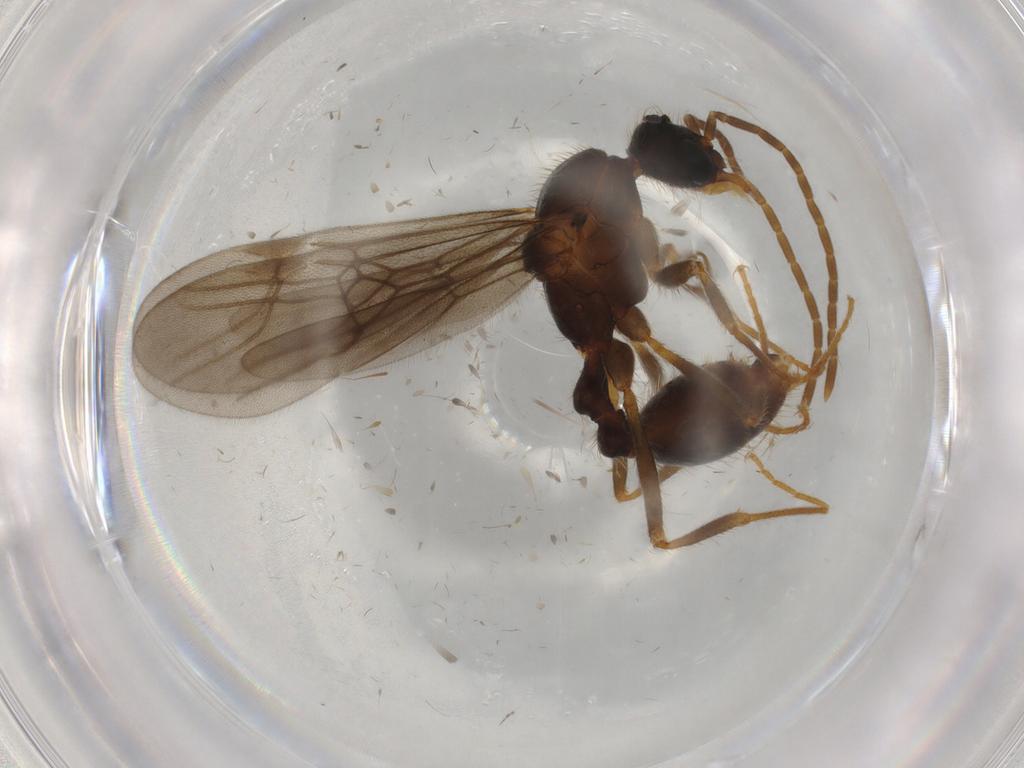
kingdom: Animalia
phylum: Arthropoda
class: Insecta
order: Hymenoptera
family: Formicidae
